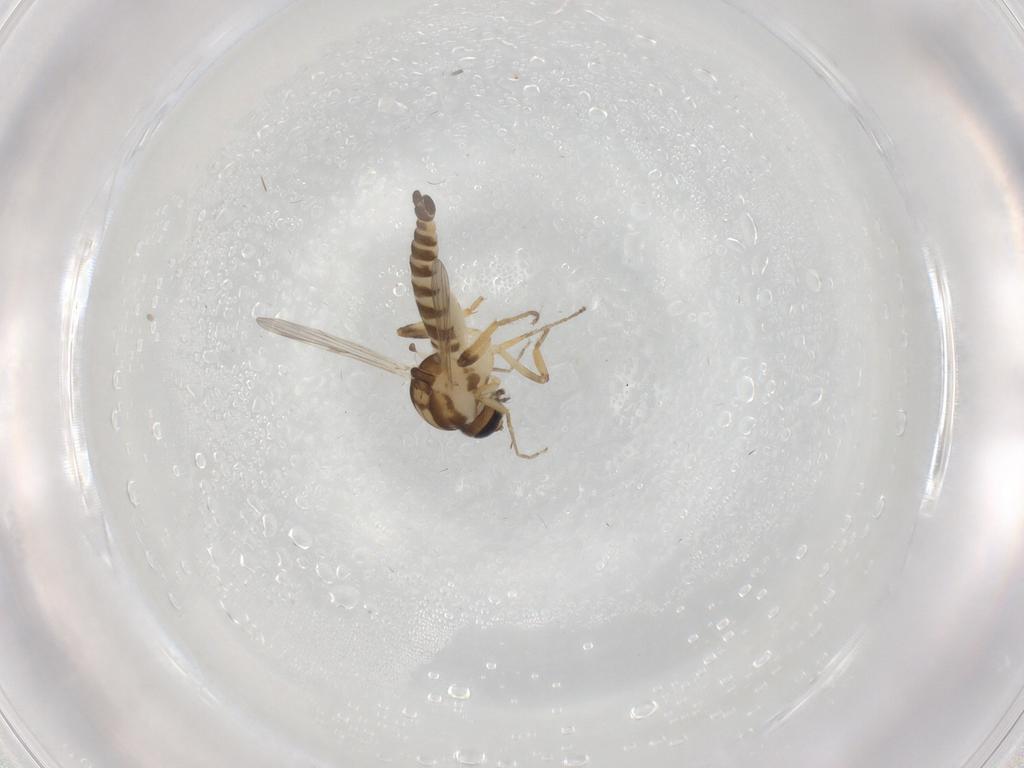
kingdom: Animalia
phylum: Arthropoda
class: Insecta
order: Diptera
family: Ceratopogonidae
